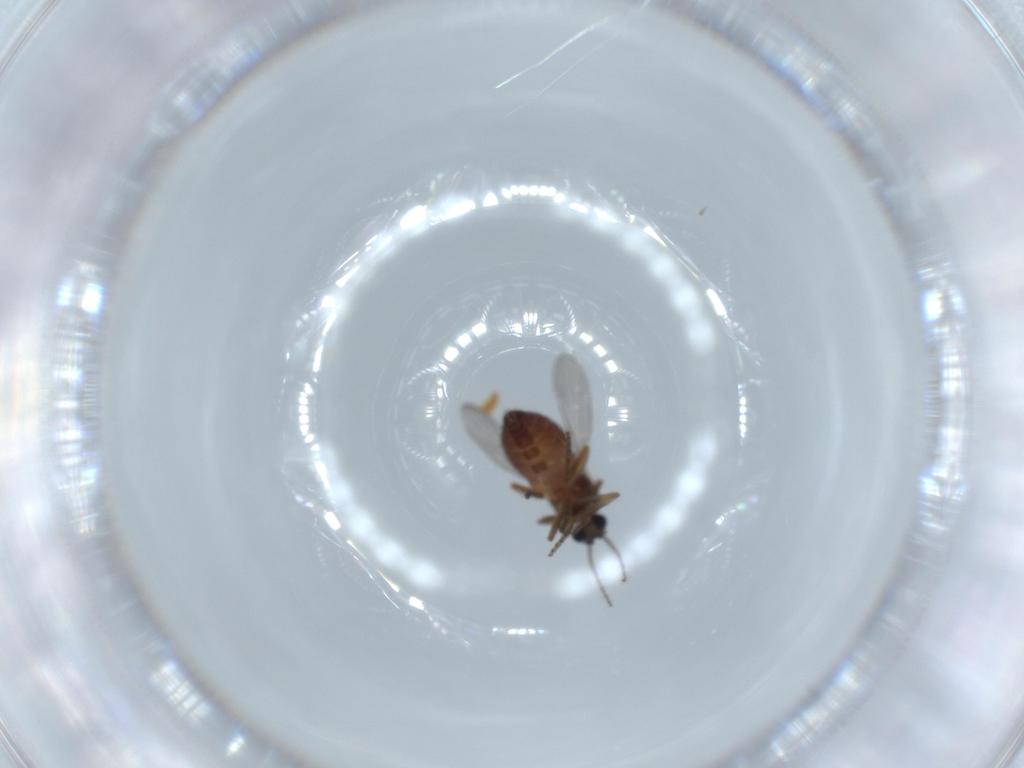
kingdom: Animalia
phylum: Arthropoda
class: Insecta
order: Diptera
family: Ceratopogonidae
